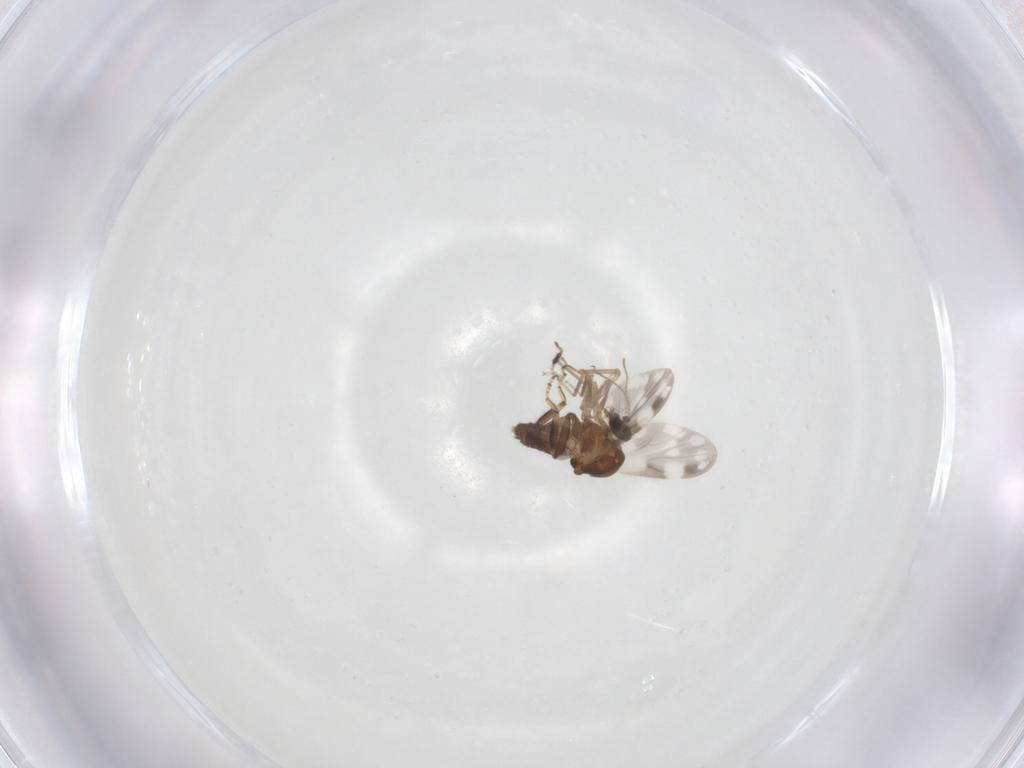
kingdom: Animalia
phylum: Arthropoda
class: Insecta
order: Diptera
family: Ceratopogonidae
